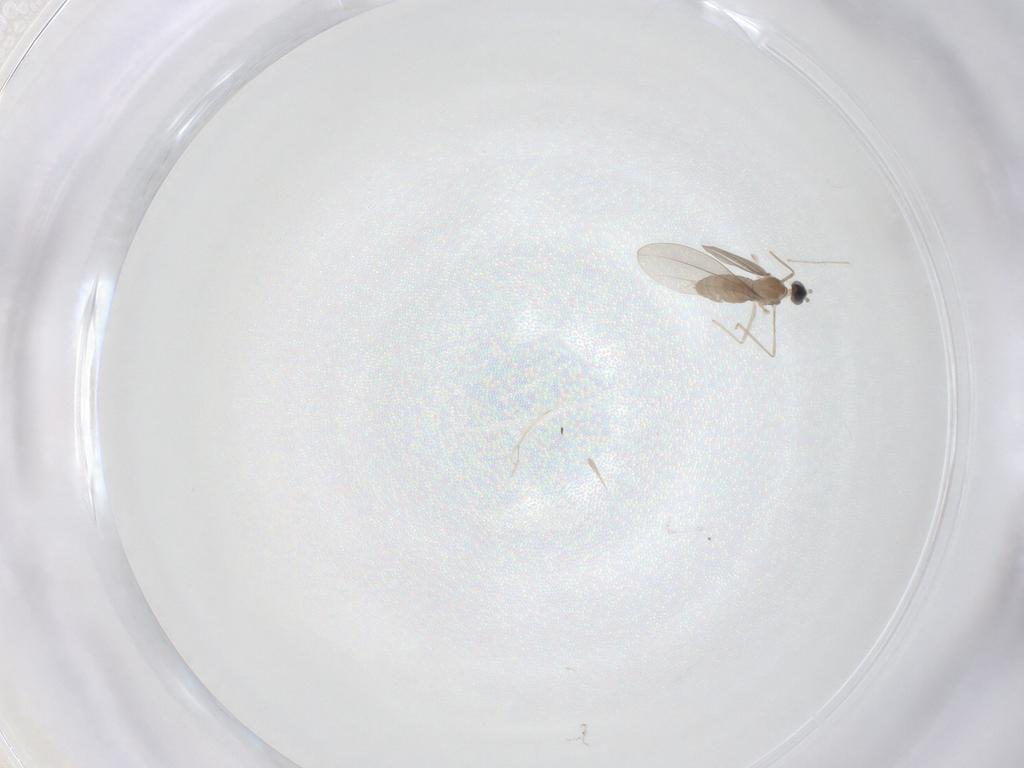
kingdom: Animalia
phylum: Arthropoda
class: Insecta
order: Diptera
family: Cecidomyiidae
